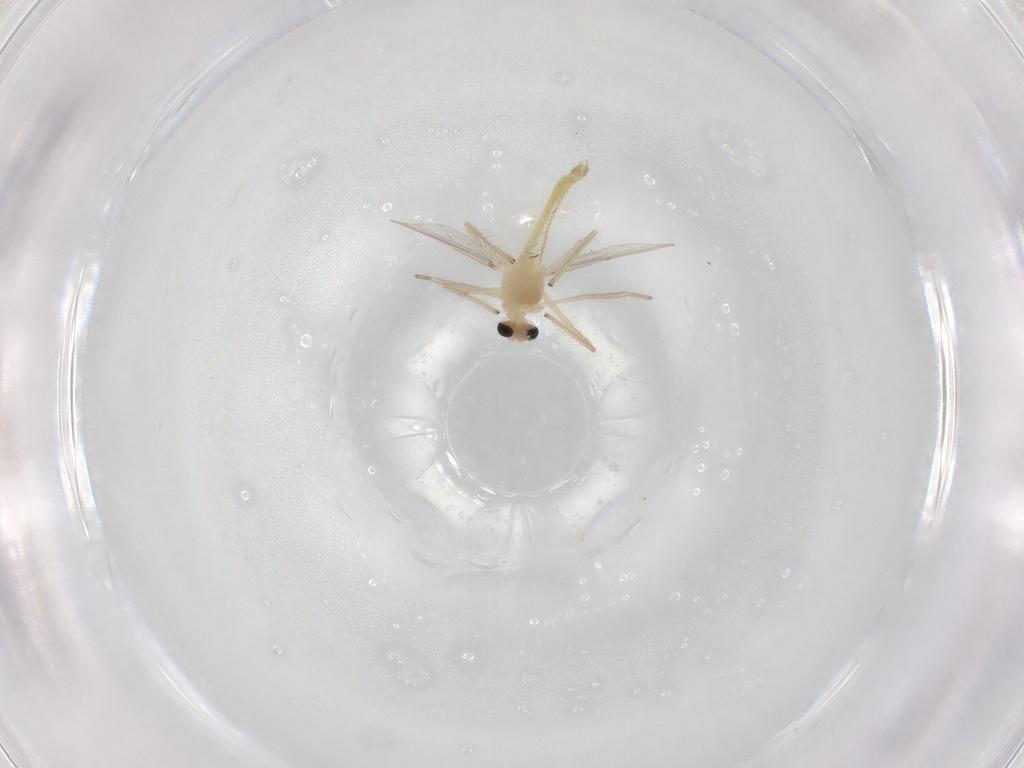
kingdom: Animalia
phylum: Arthropoda
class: Insecta
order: Diptera
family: Chironomidae
